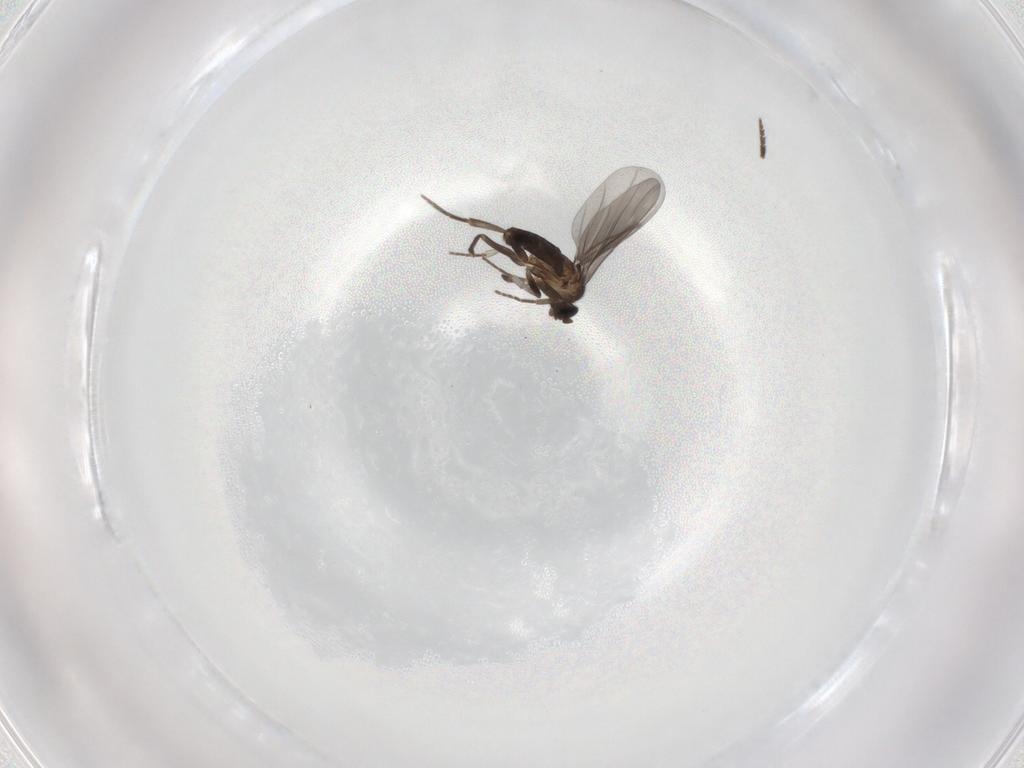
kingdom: Animalia
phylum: Arthropoda
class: Insecta
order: Diptera
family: Phoridae
